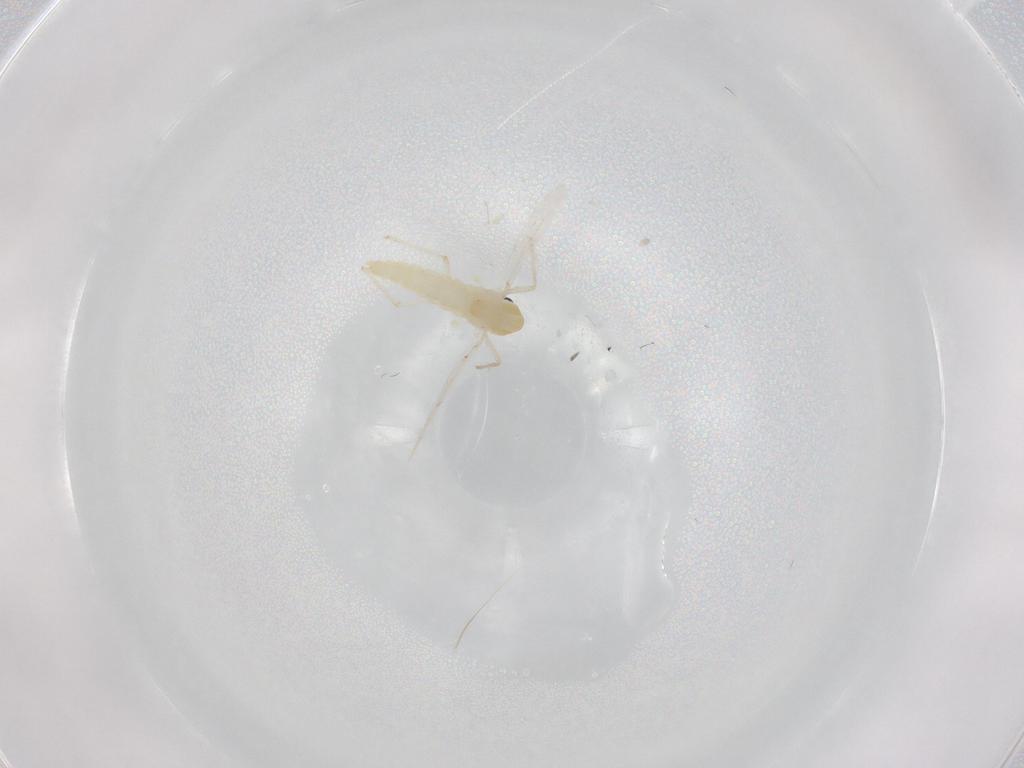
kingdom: Animalia
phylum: Arthropoda
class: Insecta
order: Diptera
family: Chironomidae
